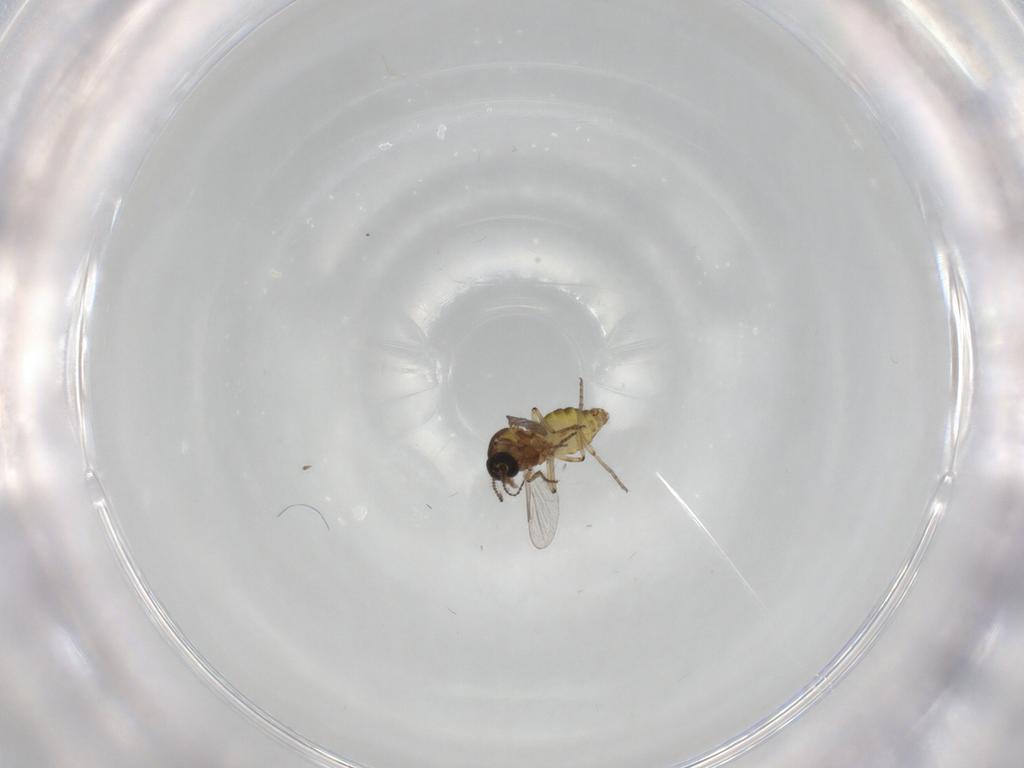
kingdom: Animalia
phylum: Arthropoda
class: Insecta
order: Diptera
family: Ceratopogonidae
